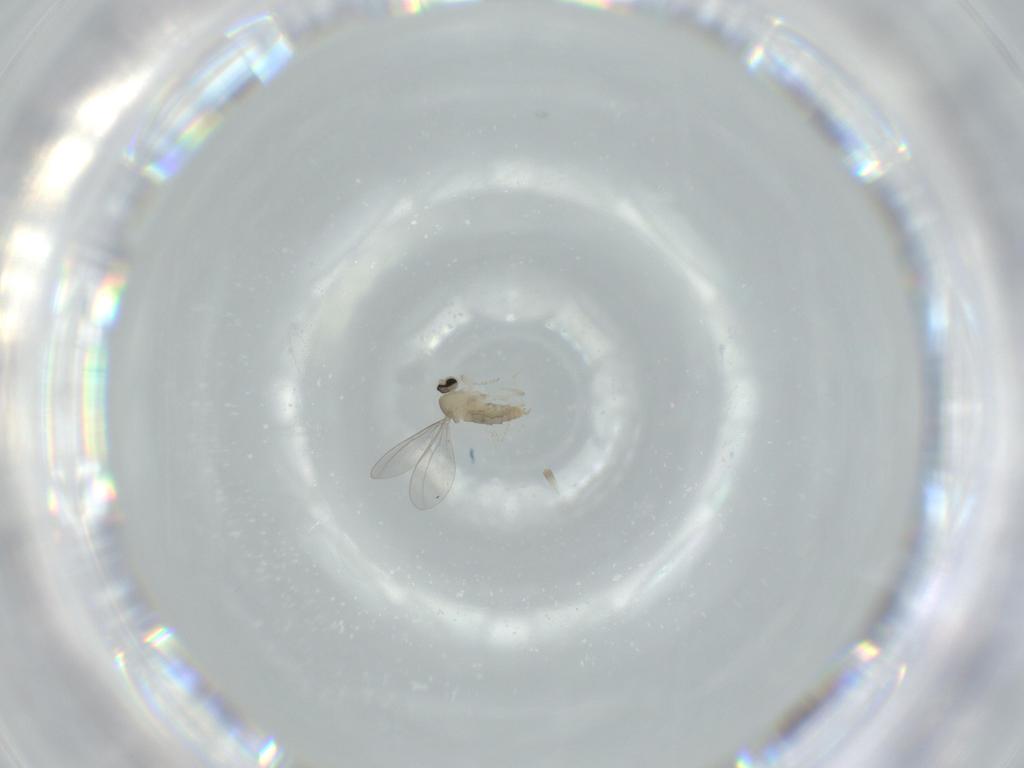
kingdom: Animalia
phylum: Arthropoda
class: Insecta
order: Diptera
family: Cecidomyiidae
